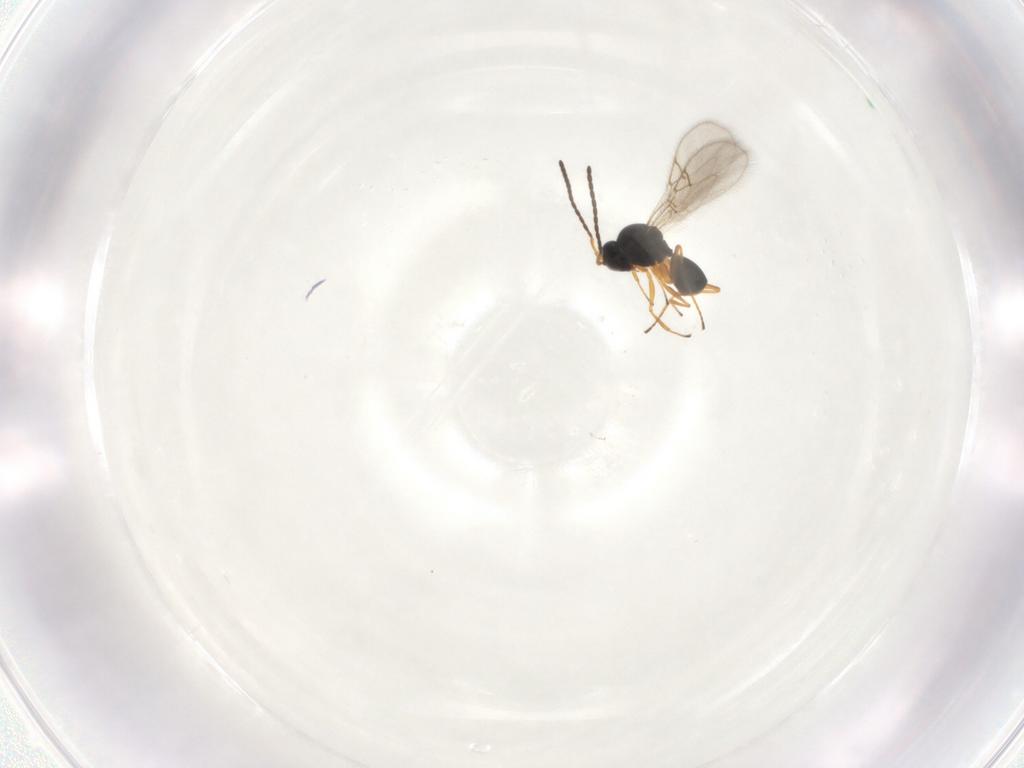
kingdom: Animalia
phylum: Arthropoda
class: Insecta
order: Hymenoptera
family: Figitidae
